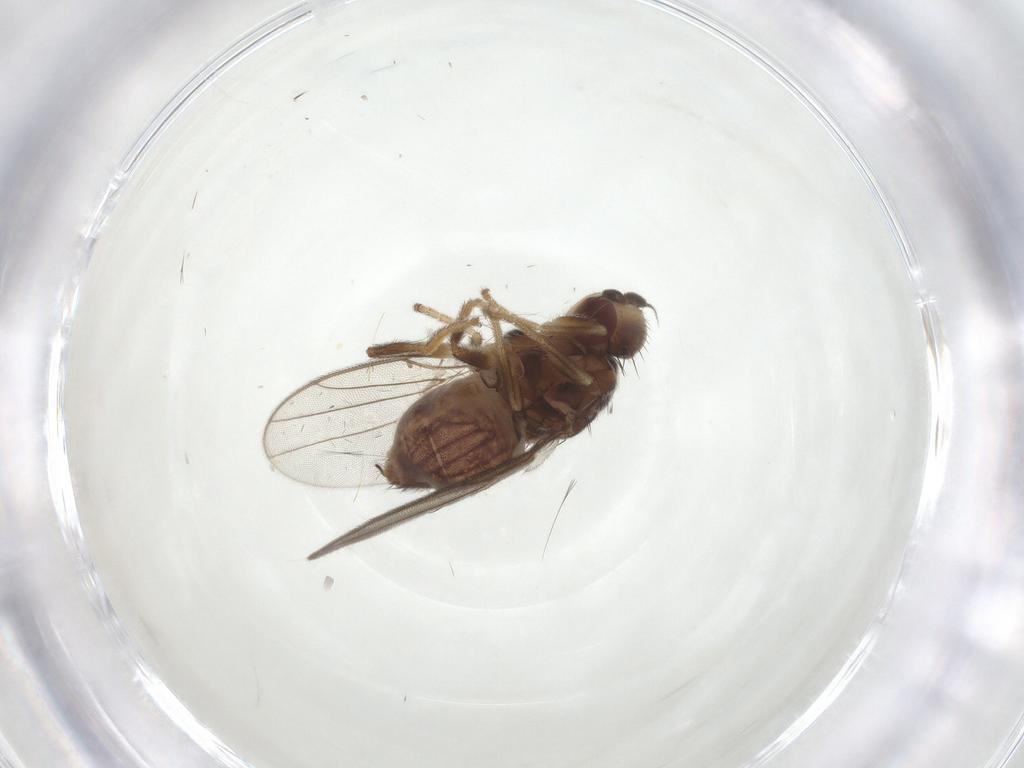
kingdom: Animalia
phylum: Arthropoda
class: Insecta
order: Diptera
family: Chloropidae
